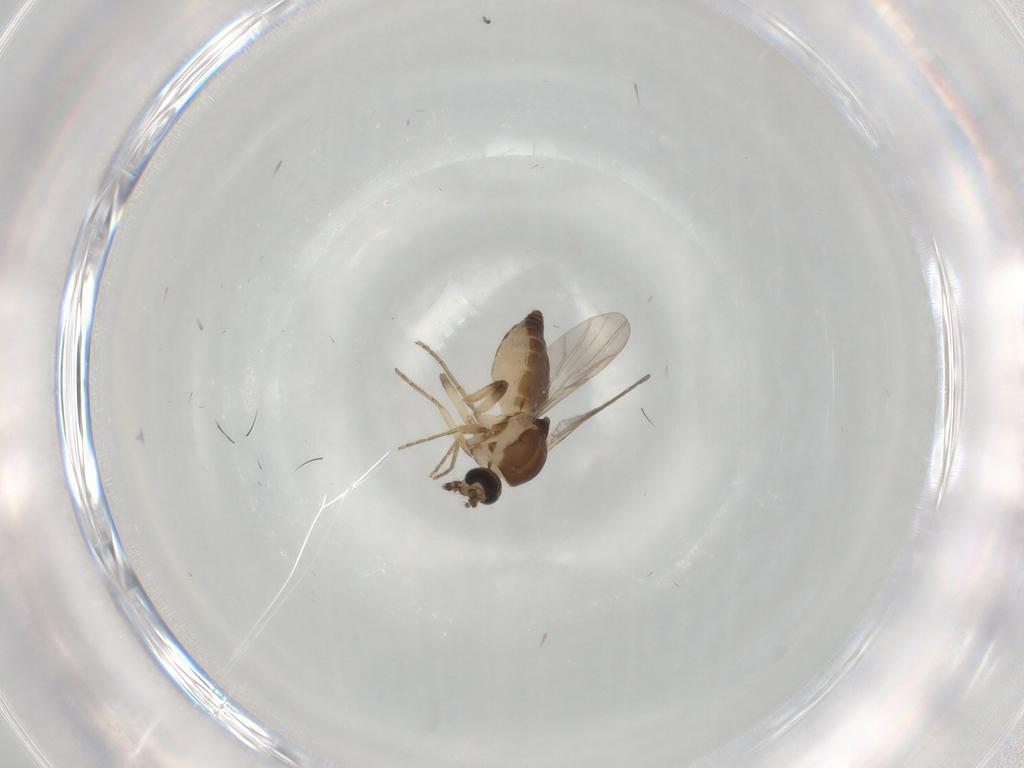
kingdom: Animalia
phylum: Arthropoda
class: Insecta
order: Diptera
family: Ceratopogonidae
